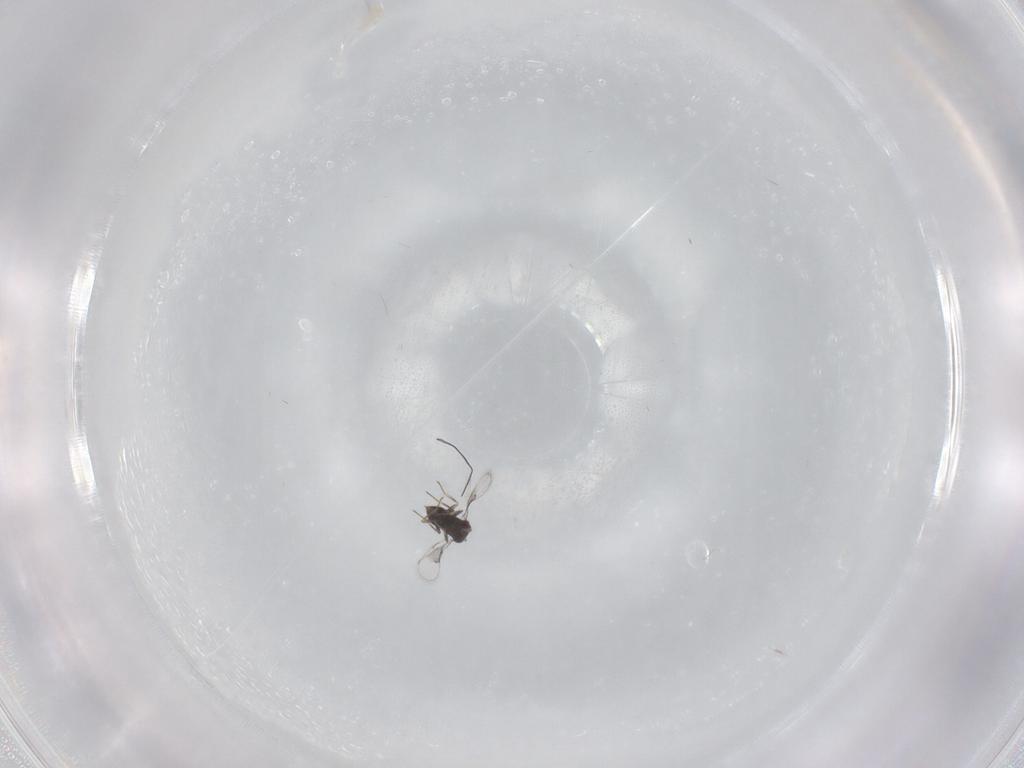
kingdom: Animalia
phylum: Arthropoda
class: Insecta
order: Hymenoptera
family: Trichogrammatidae
